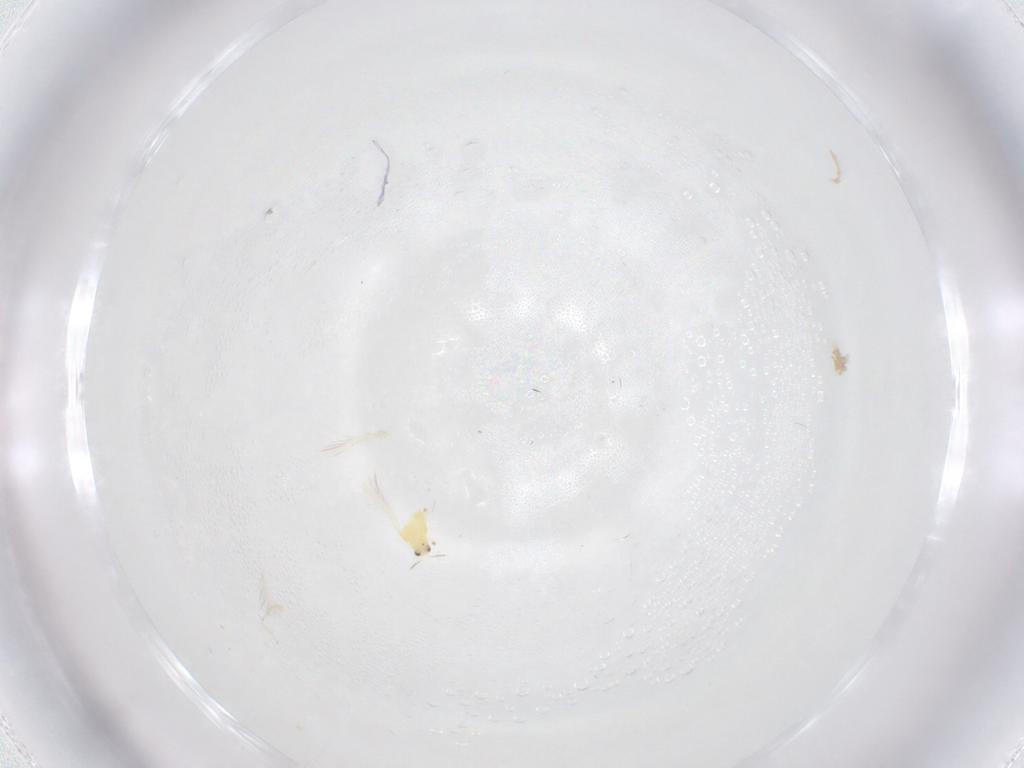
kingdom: Animalia
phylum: Arthropoda
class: Insecta
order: Thysanoptera
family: Thripidae
